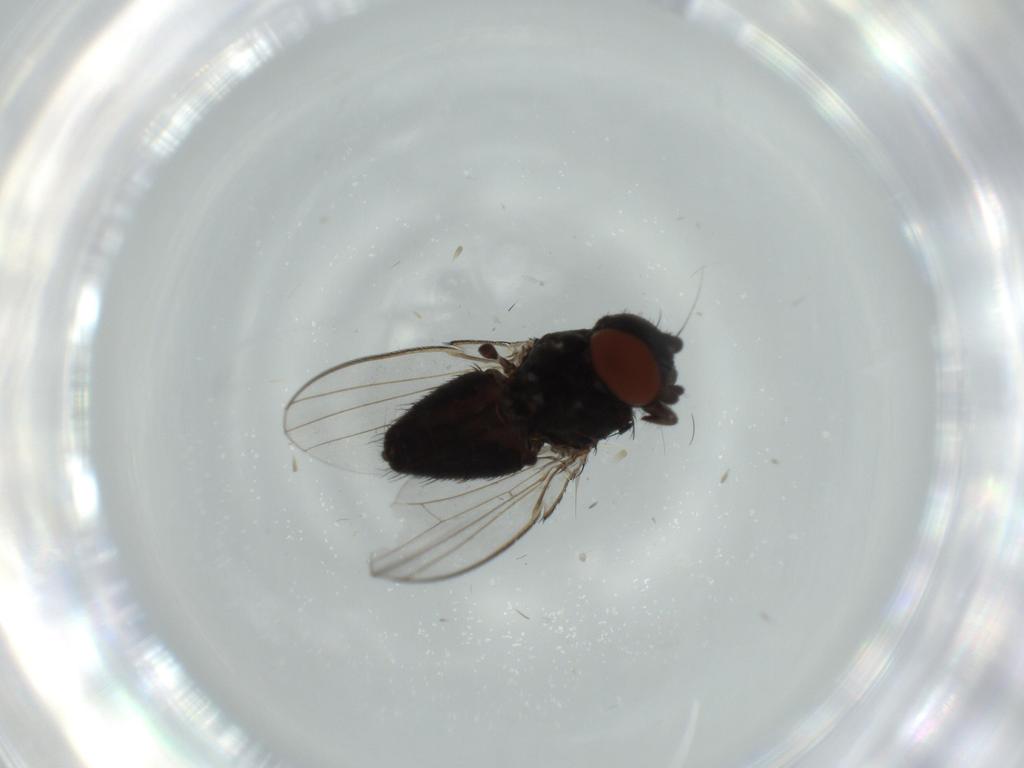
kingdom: Animalia
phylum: Arthropoda
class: Insecta
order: Diptera
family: Milichiidae
